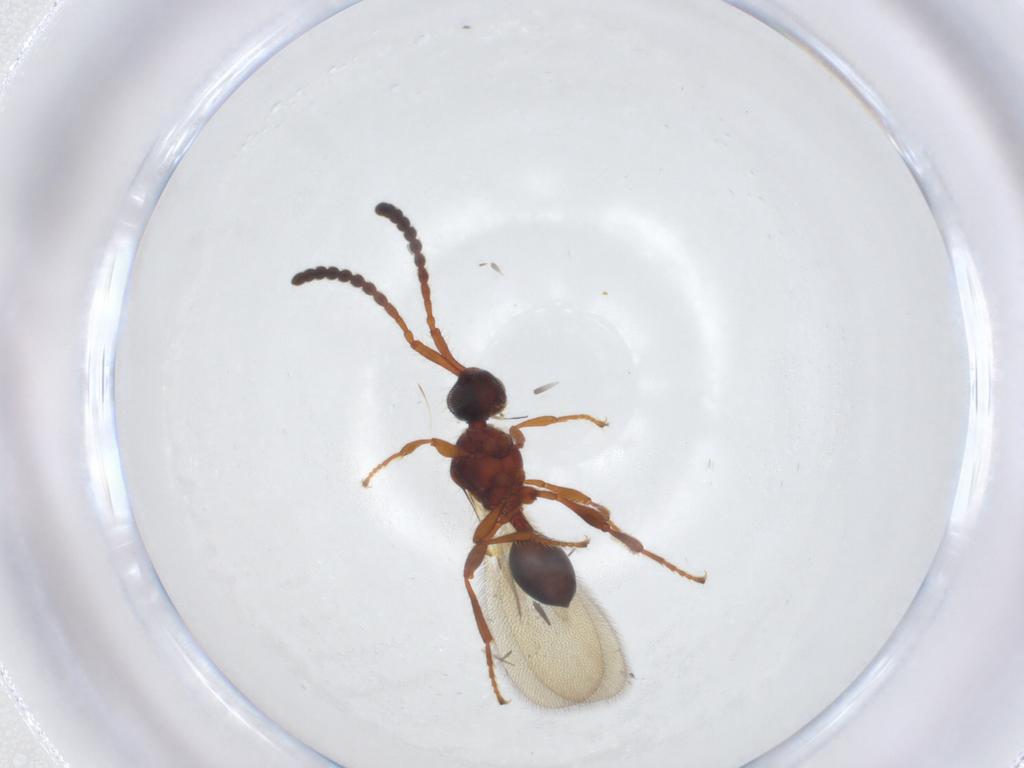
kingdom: Animalia
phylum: Arthropoda
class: Insecta
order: Hymenoptera
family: Diapriidae
